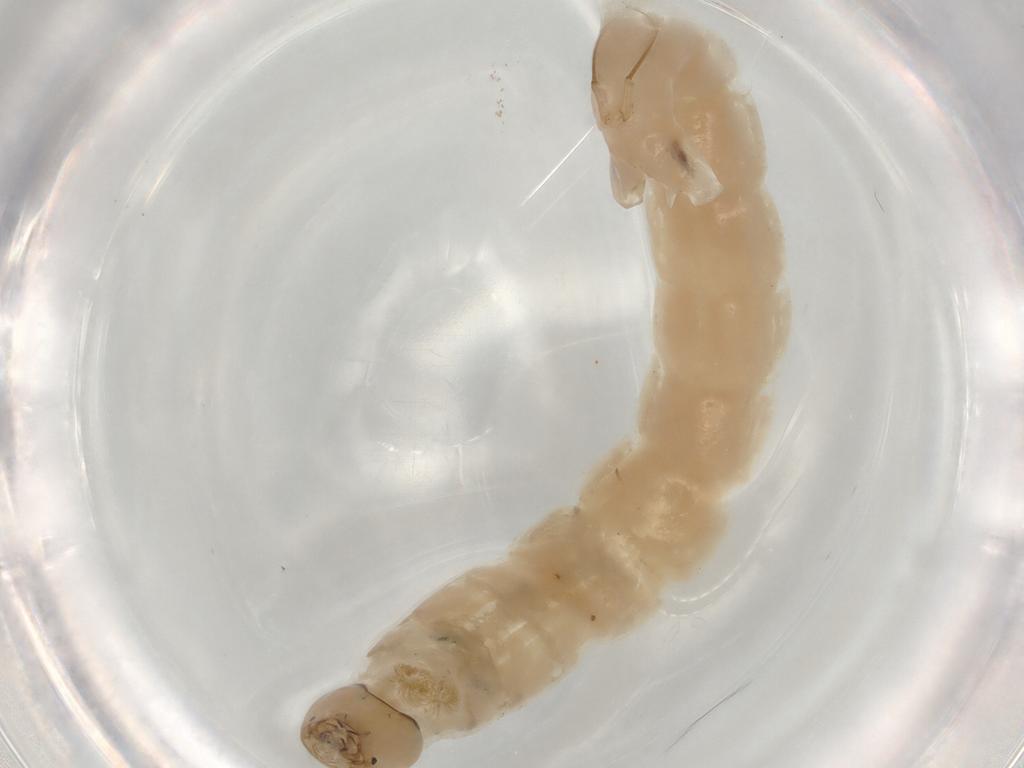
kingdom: Animalia
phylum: Arthropoda
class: Insecta
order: Diptera
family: Chironomidae
